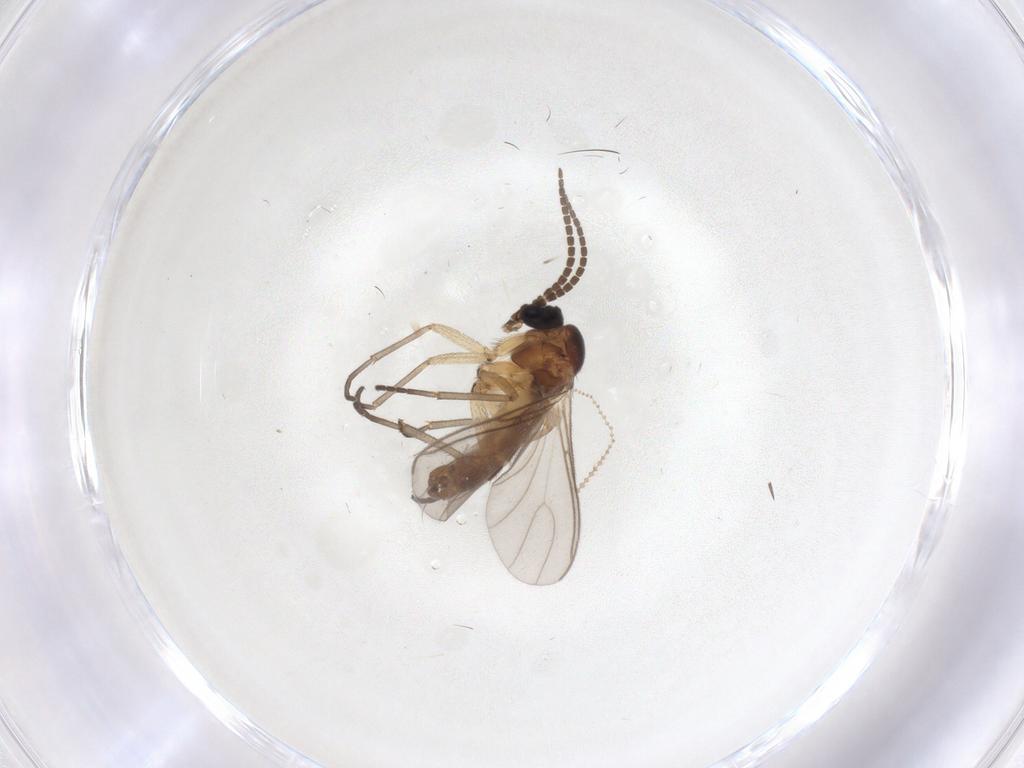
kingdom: Animalia
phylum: Arthropoda
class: Insecta
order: Diptera
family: Sciaridae
